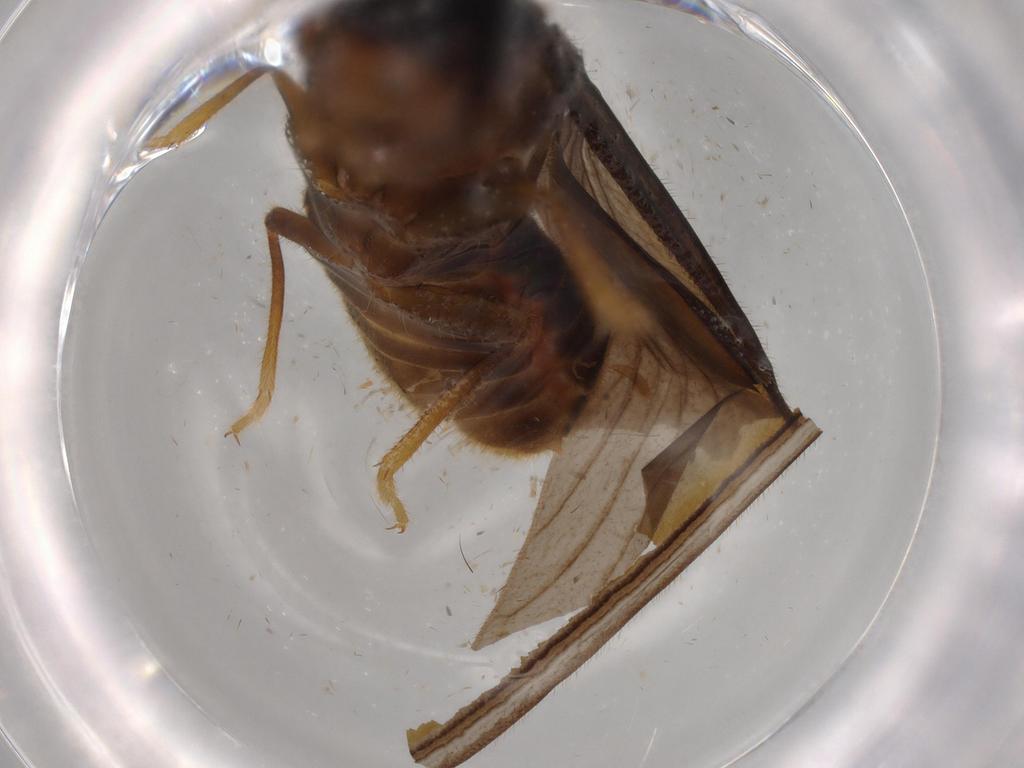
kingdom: Animalia
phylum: Arthropoda
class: Insecta
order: Blattodea
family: Termitidae
